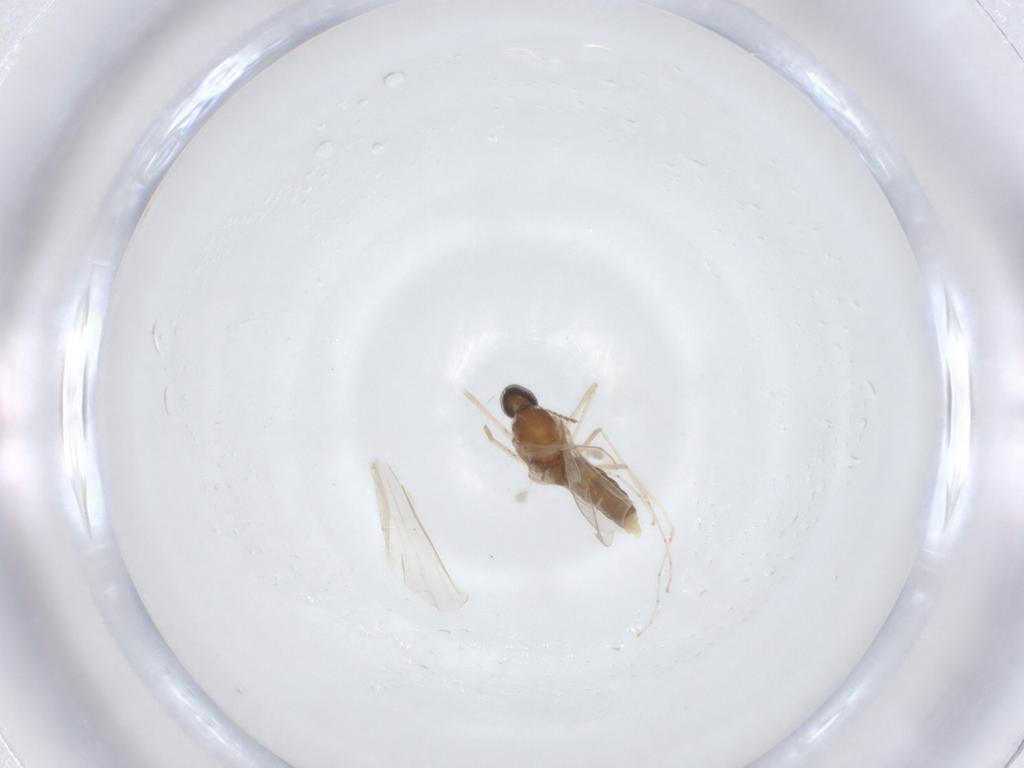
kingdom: Animalia
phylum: Arthropoda
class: Insecta
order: Diptera
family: Cecidomyiidae
